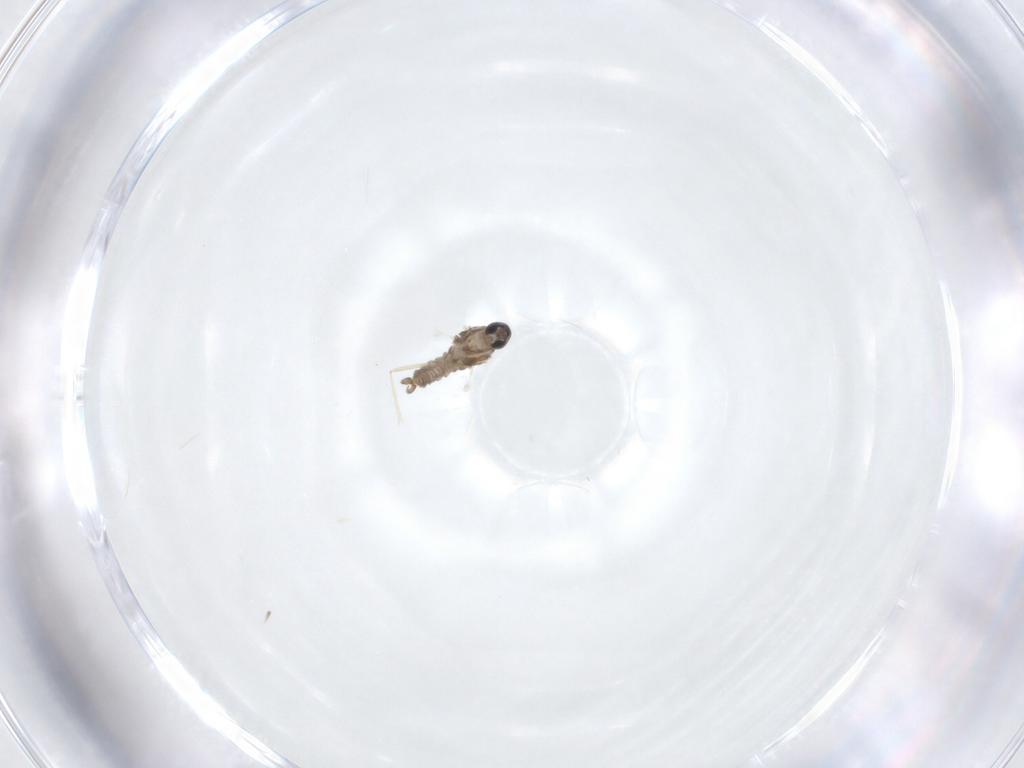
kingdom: Animalia
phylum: Arthropoda
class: Insecta
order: Diptera
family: Cecidomyiidae
